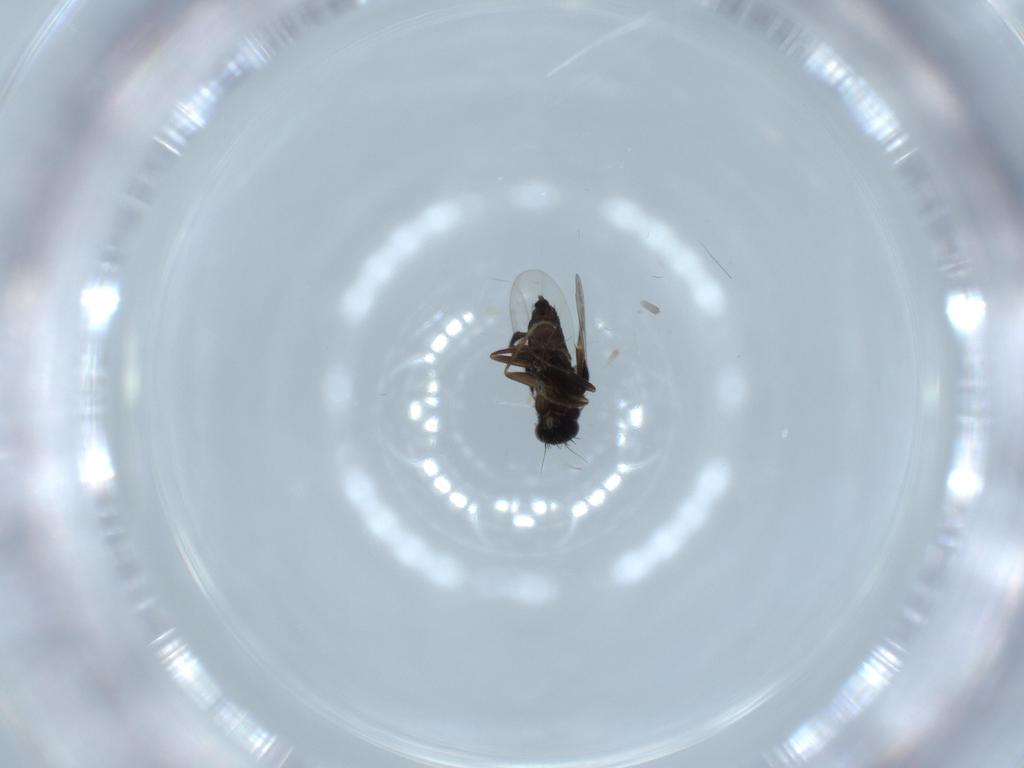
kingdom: Animalia
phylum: Arthropoda
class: Insecta
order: Diptera
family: Phoridae
